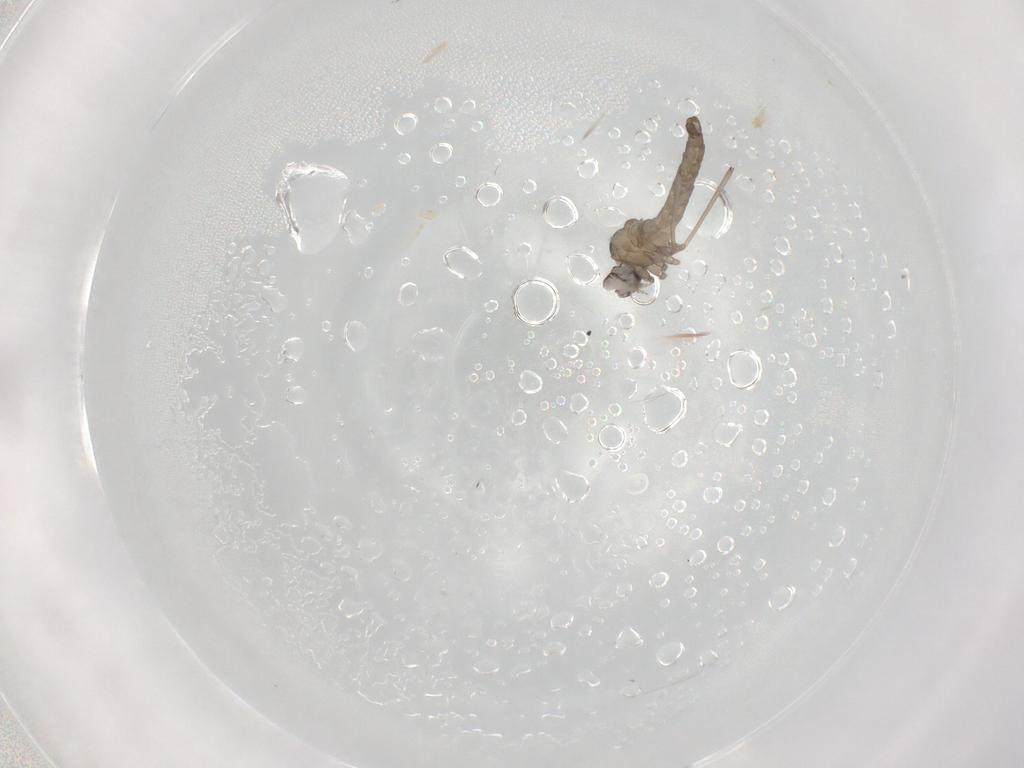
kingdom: Animalia
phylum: Arthropoda
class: Insecta
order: Diptera
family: Cecidomyiidae
